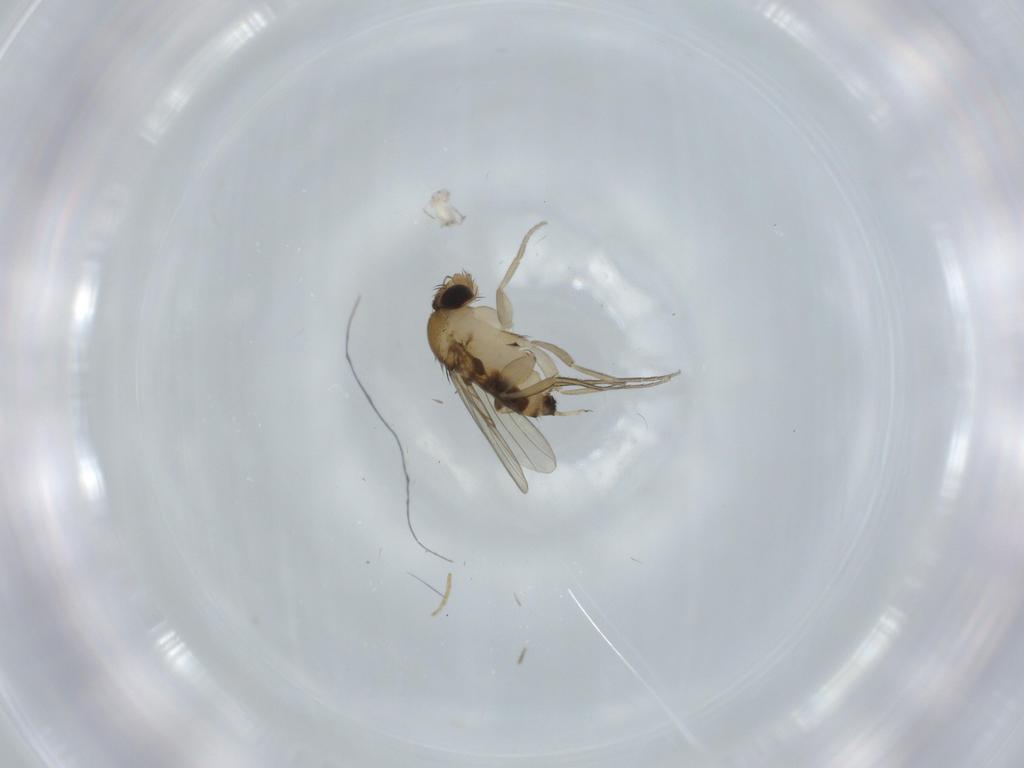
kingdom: Animalia
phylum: Arthropoda
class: Insecta
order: Diptera
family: Phoridae
